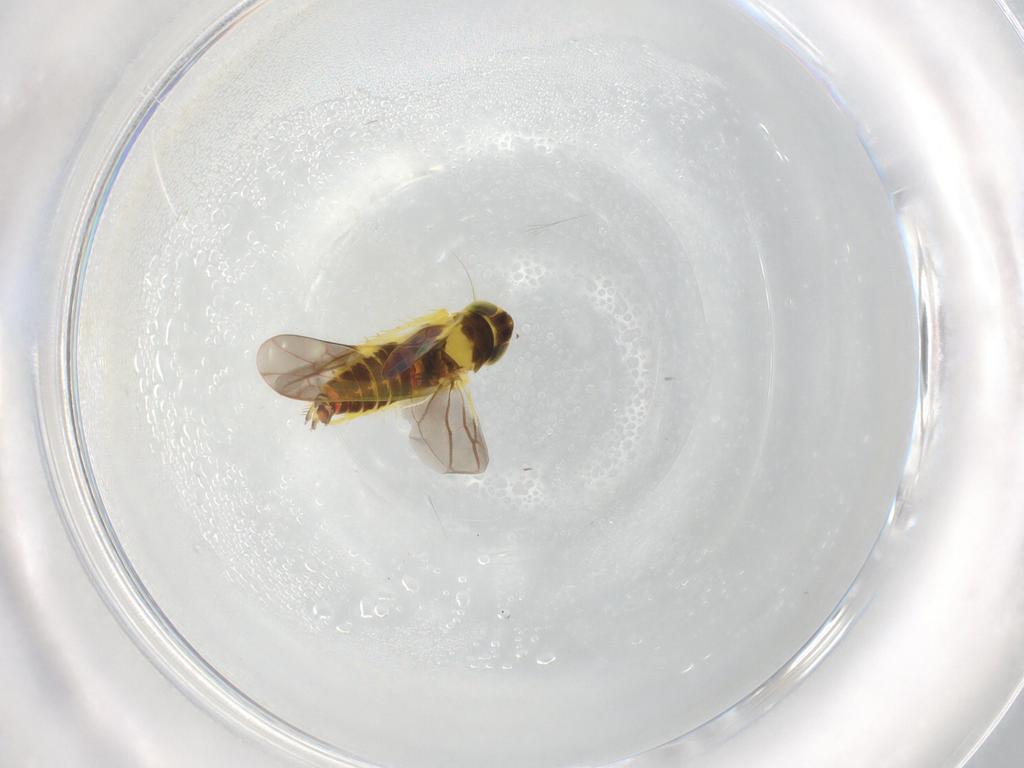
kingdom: Animalia
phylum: Arthropoda
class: Insecta
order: Hemiptera
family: Cicadellidae
